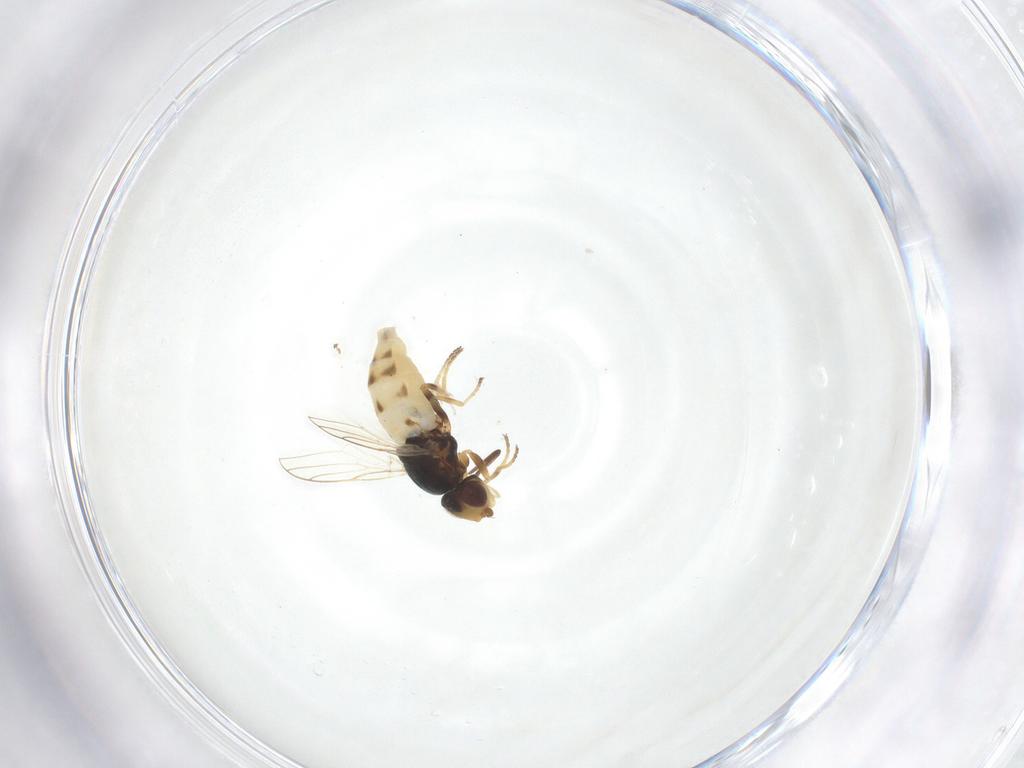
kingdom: Animalia
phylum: Arthropoda
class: Insecta
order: Diptera
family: Chloropidae
